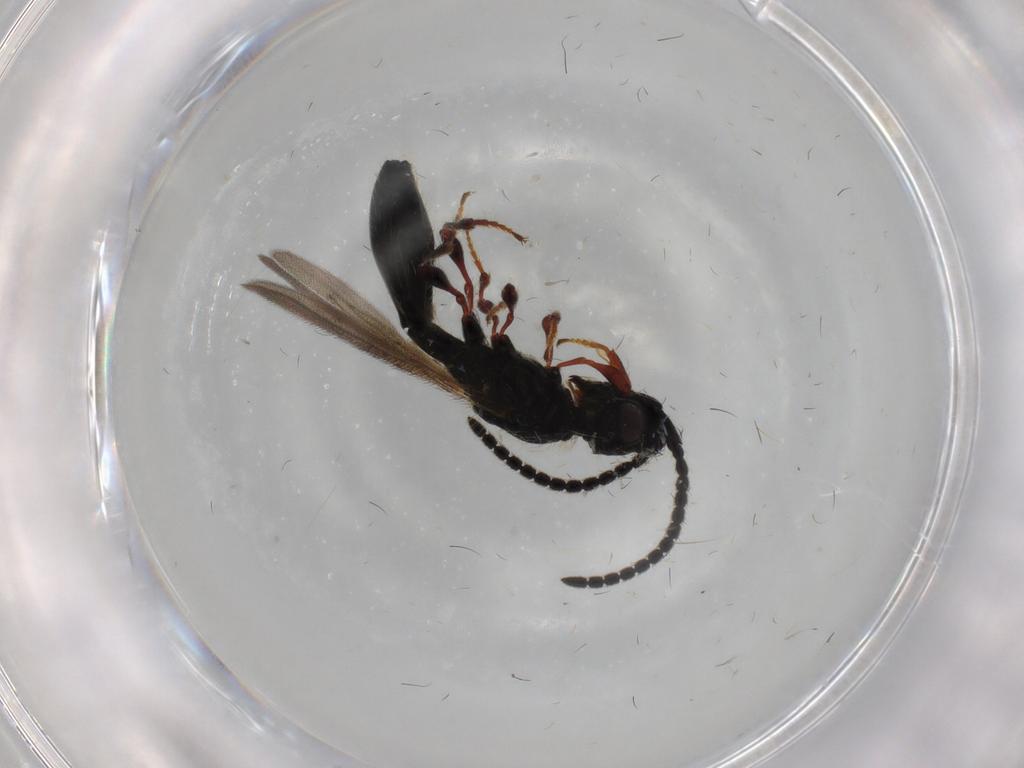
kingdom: Animalia
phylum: Arthropoda
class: Insecta
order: Hymenoptera
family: Diapriidae
